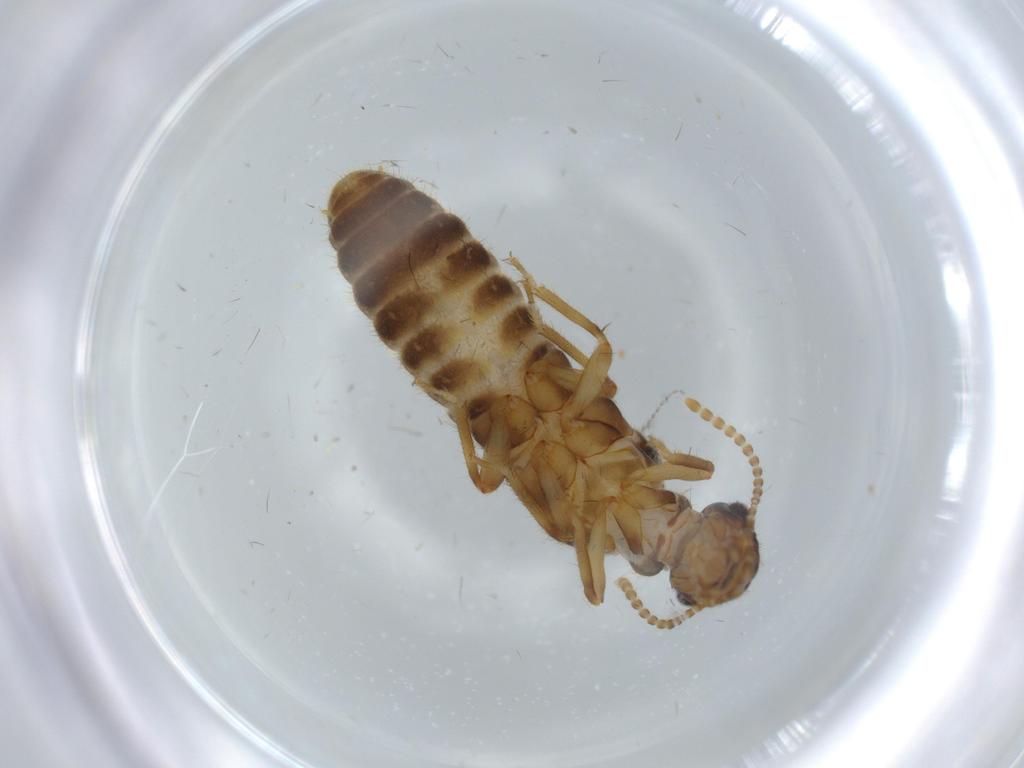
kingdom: Animalia
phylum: Arthropoda
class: Insecta
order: Blattodea
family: Termitidae
